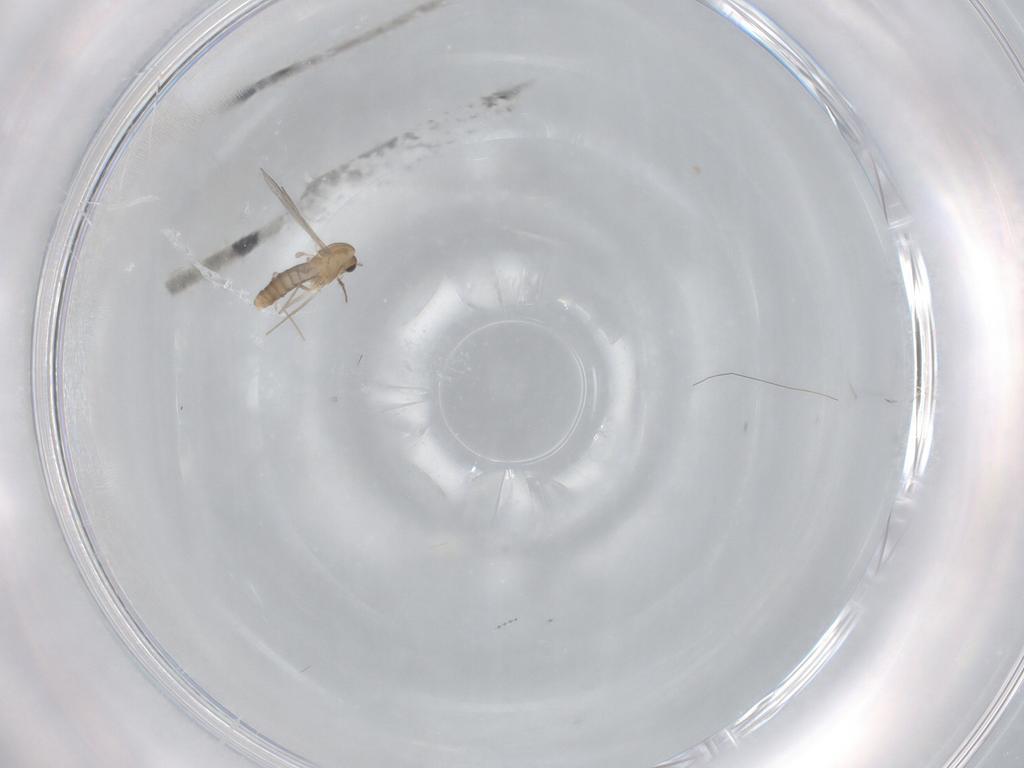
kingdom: Animalia
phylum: Arthropoda
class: Insecta
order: Diptera
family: Chironomidae
